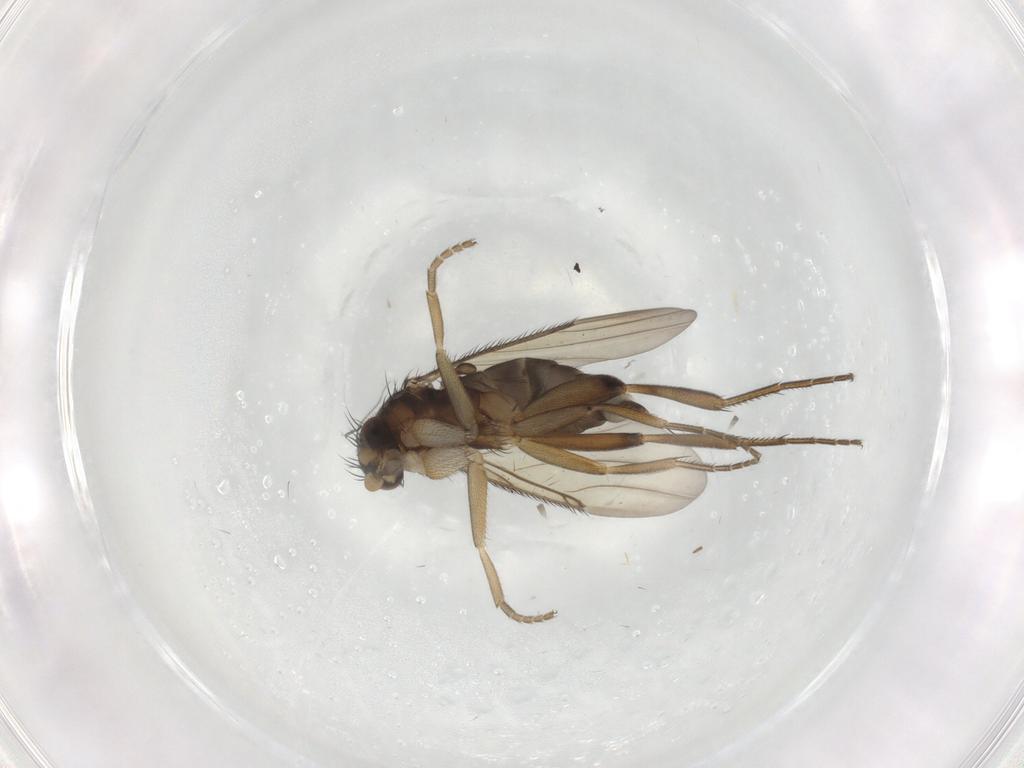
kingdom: Animalia
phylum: Arthropoda
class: Insecta
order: Diptera
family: Phoridae
